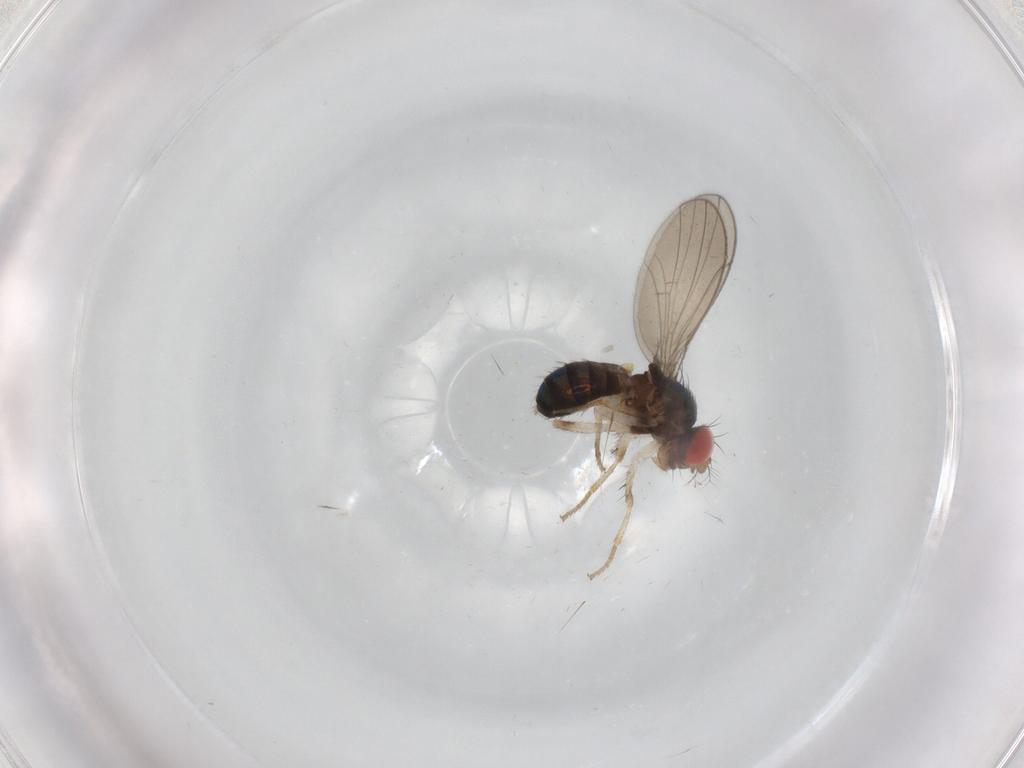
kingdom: Animalia
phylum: Arthropoda
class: Insecta
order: Diptera
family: Drosophilidae
